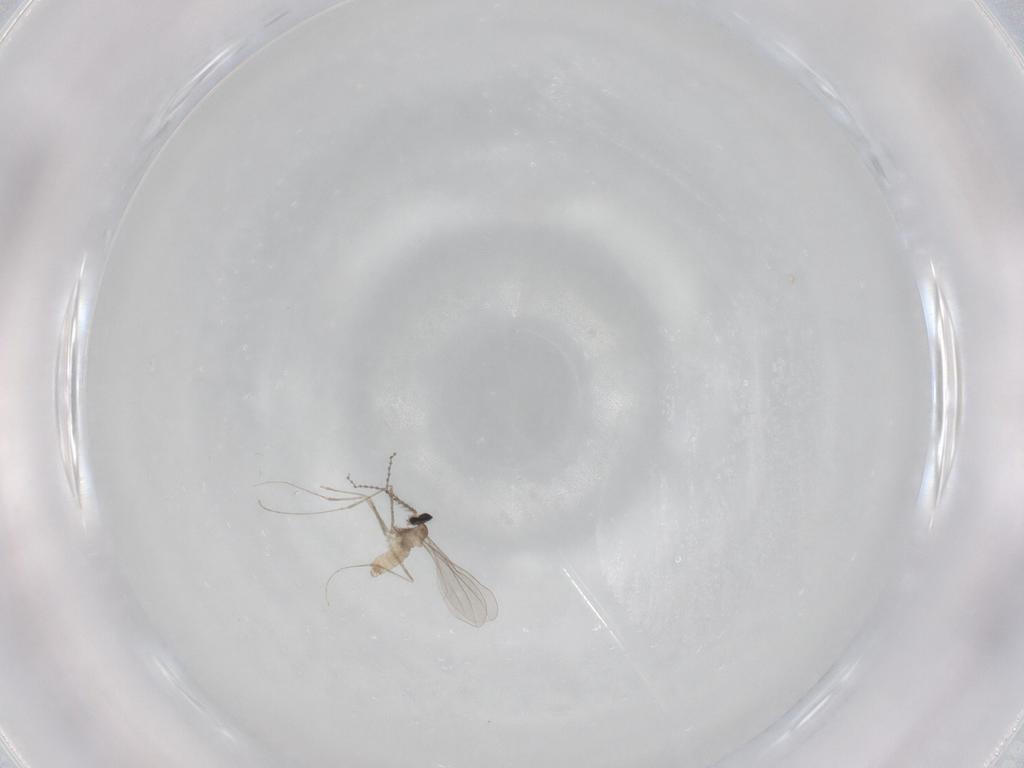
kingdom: Animalia
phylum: Arthropoda
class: Insecta
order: Diptera
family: Cecidomyiidae
